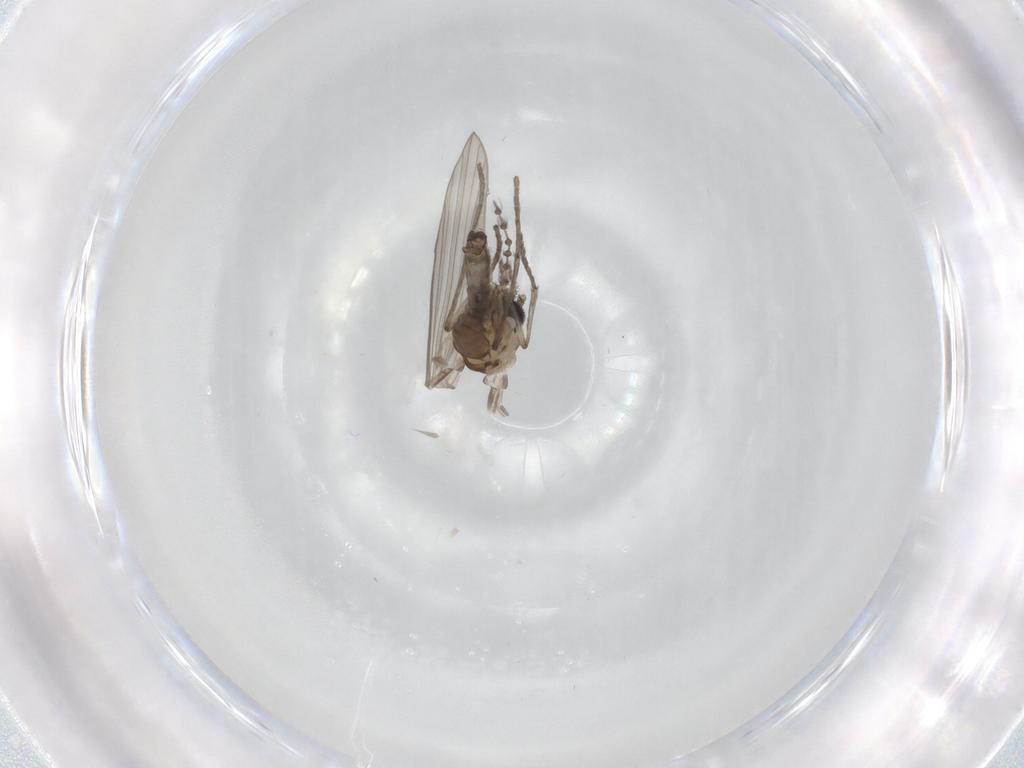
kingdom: Animalia
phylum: Arthropoda
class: Insecta
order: Diptera
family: Psychodidae
